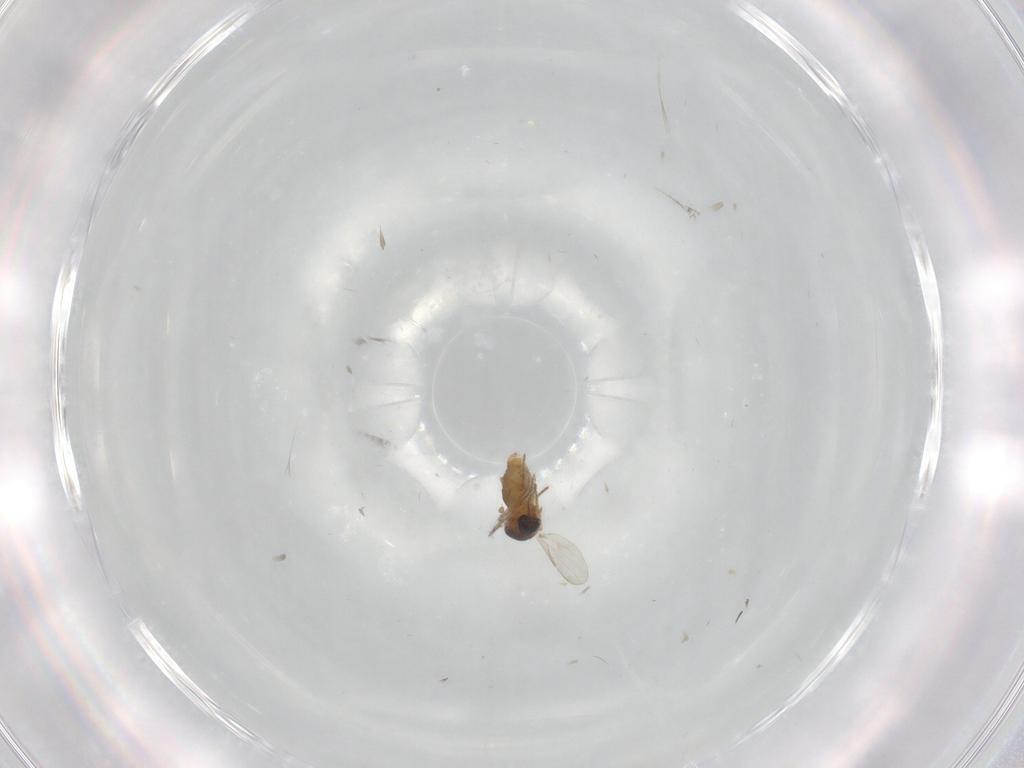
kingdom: Animalia
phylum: Arthropoda
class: Insecta
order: Diptera
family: Ceratopogonidae
